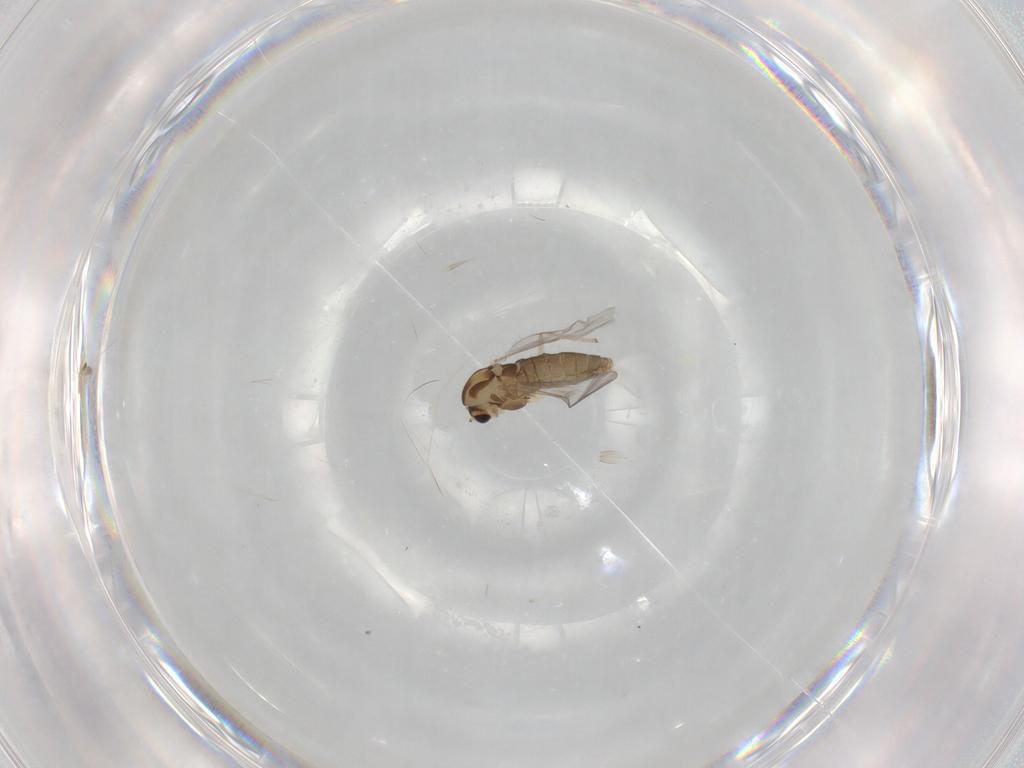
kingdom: Animalia
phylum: Arthropoda
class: Insecta
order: Diptera
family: Chironomidae
